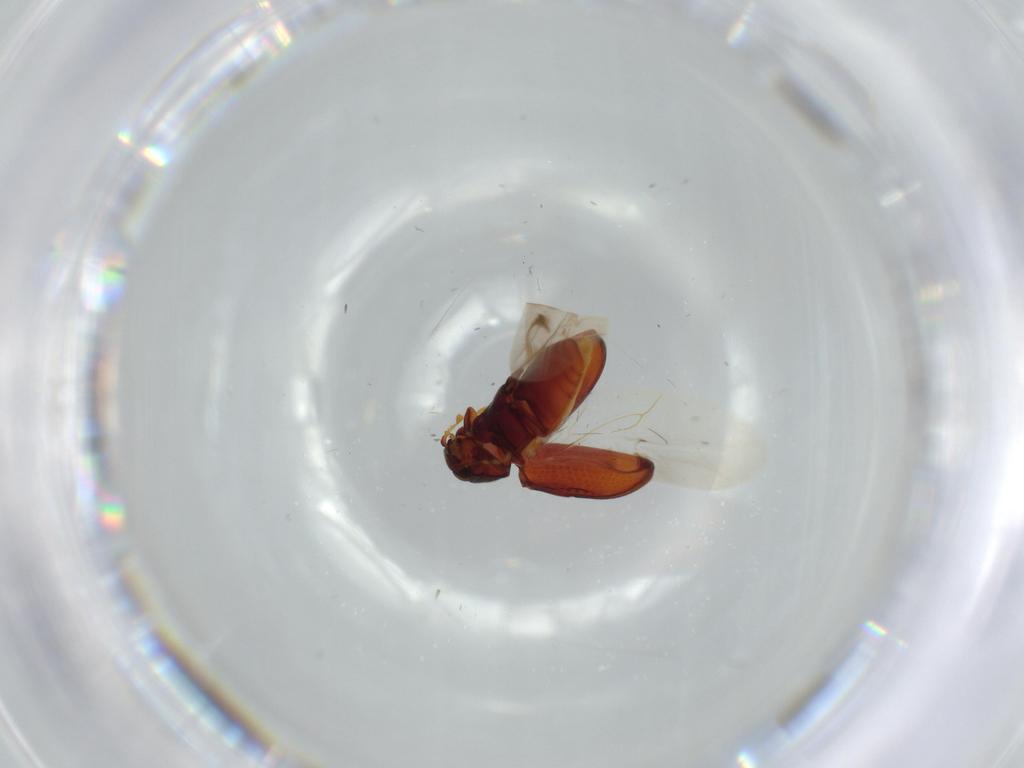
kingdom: Animalia
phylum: Arthropoda
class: Insecta
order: Coleoptera
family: Ptinidae
